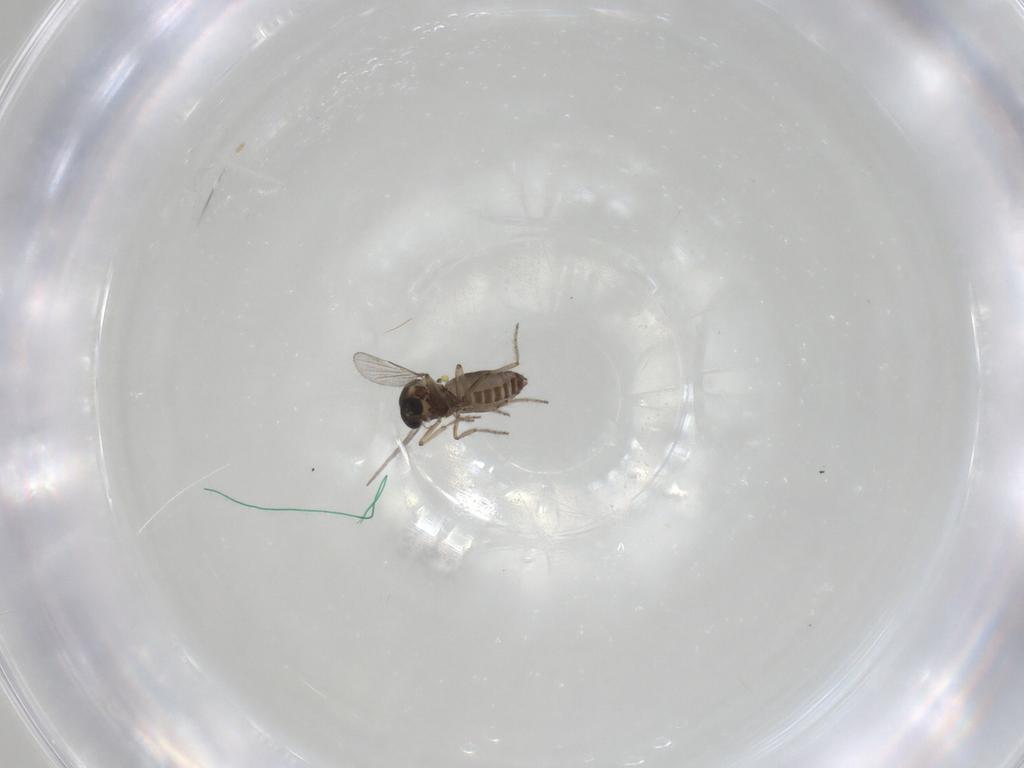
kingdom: Animalia
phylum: Arthropoda
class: Insecta
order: Diptera
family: Ceratopogonidae
